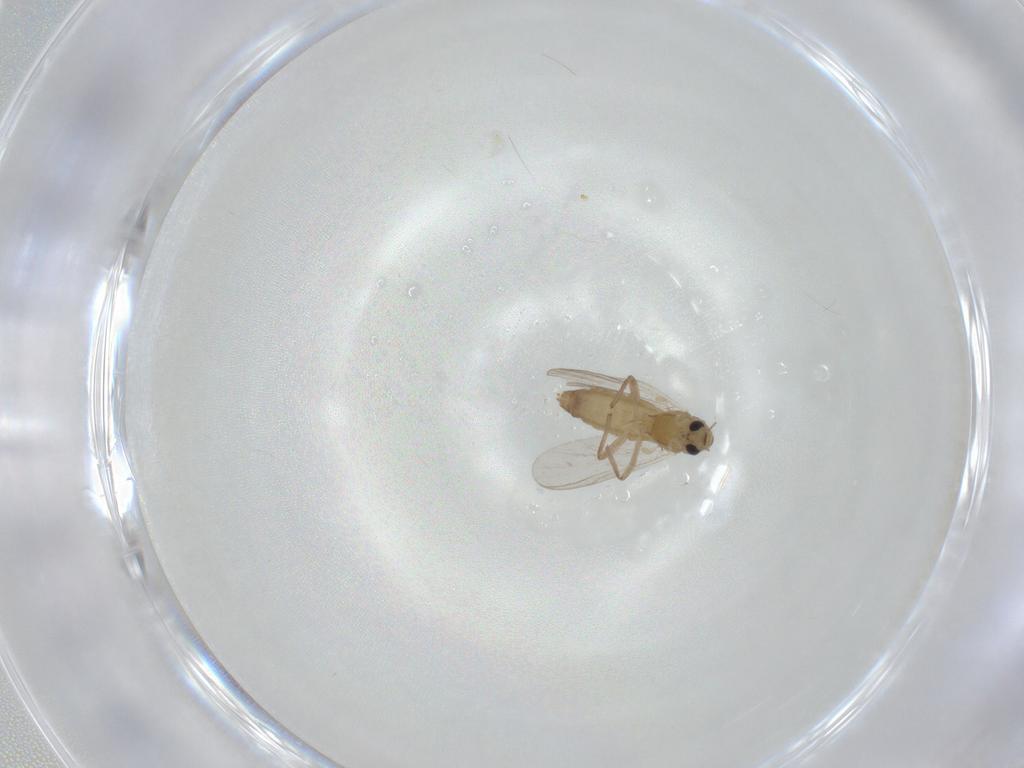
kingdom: Animalia
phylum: Arthropoda
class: Insecta
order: Diptera
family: Chironomidae
